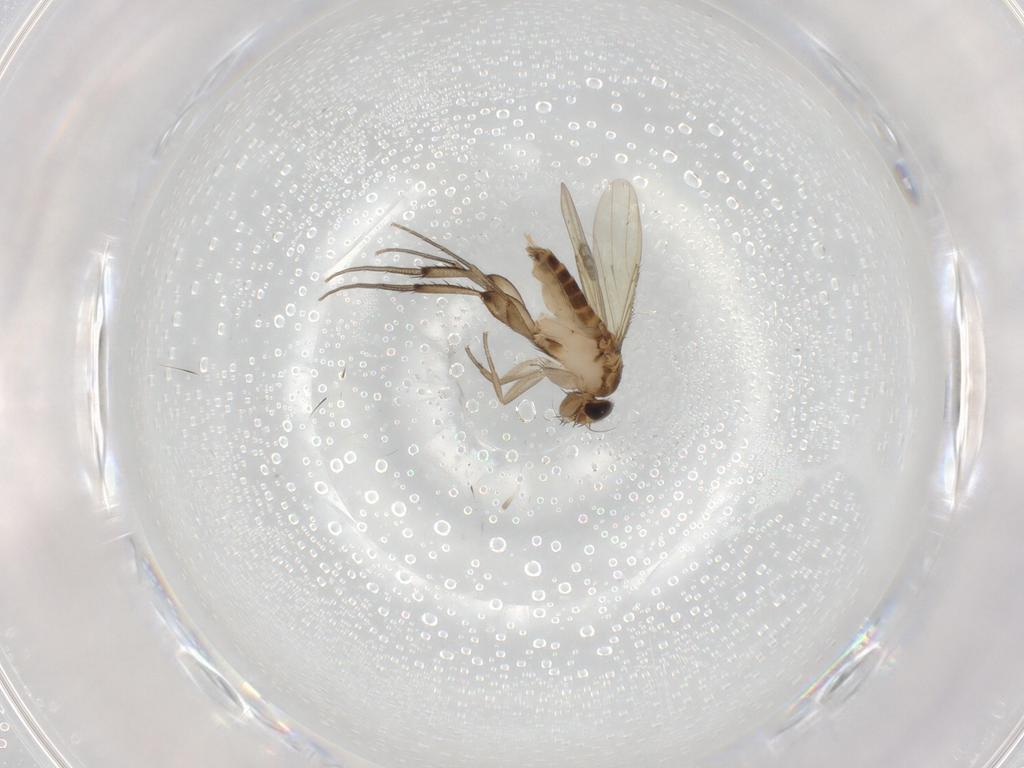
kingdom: Animalia
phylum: Arthropoda
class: Insecta
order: Diptera
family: Phoridae
